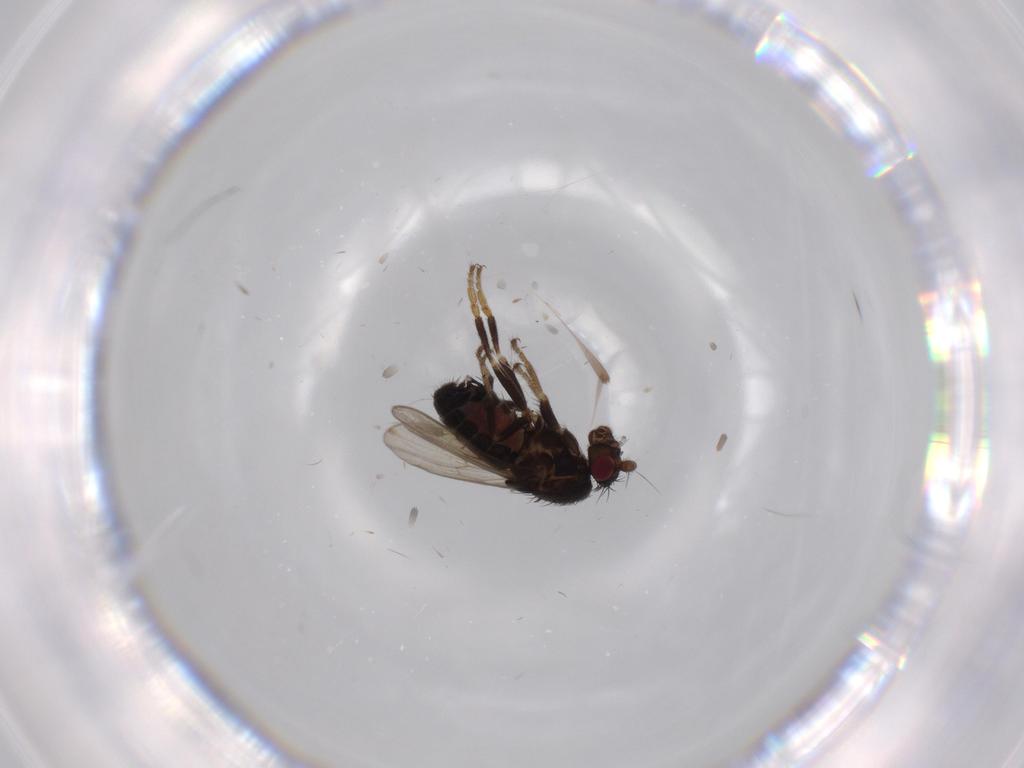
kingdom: Animalia
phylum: Arthropoda
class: Insecta
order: Diptera
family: Sphaeroceridae
